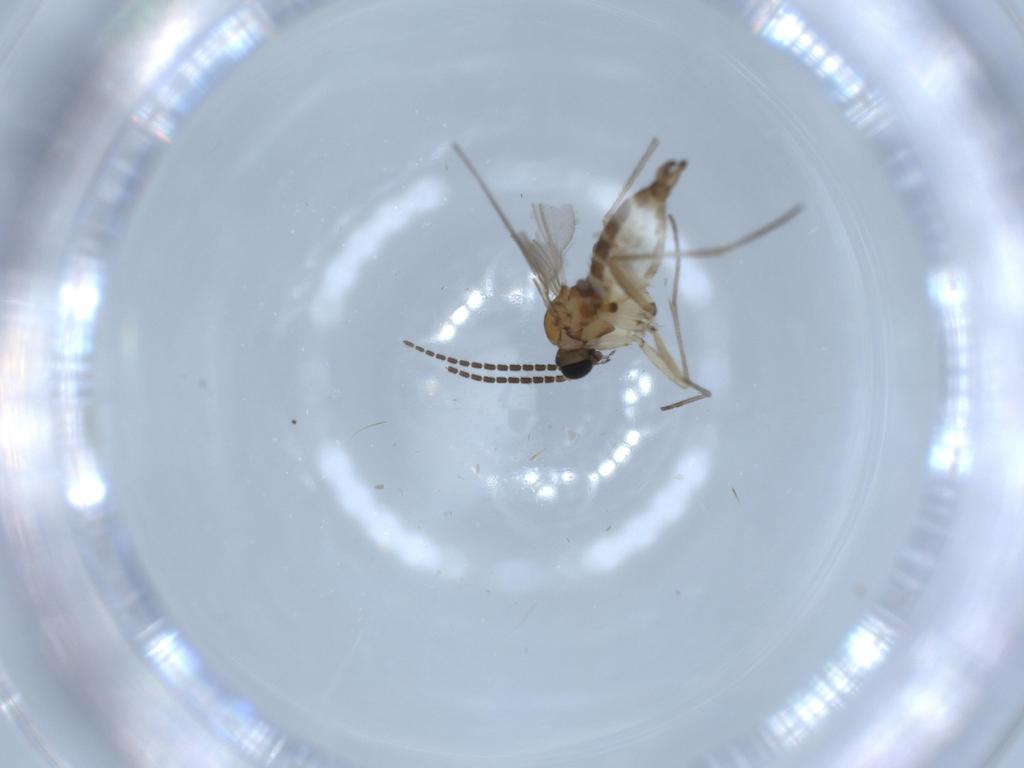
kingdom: Animalia
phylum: Arthropoda
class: Insecta
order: Diptera
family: Sciaridae
